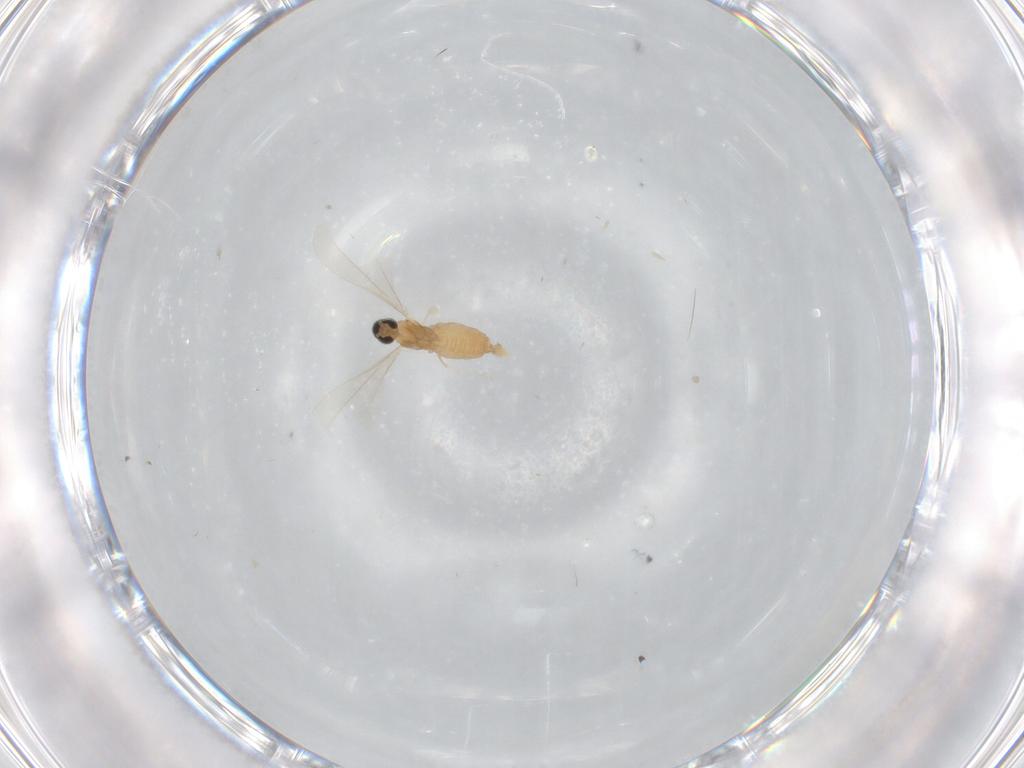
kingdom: Animalia
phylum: Arthropoda
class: Insecta
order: Diptera
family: Cecidomyiidae
